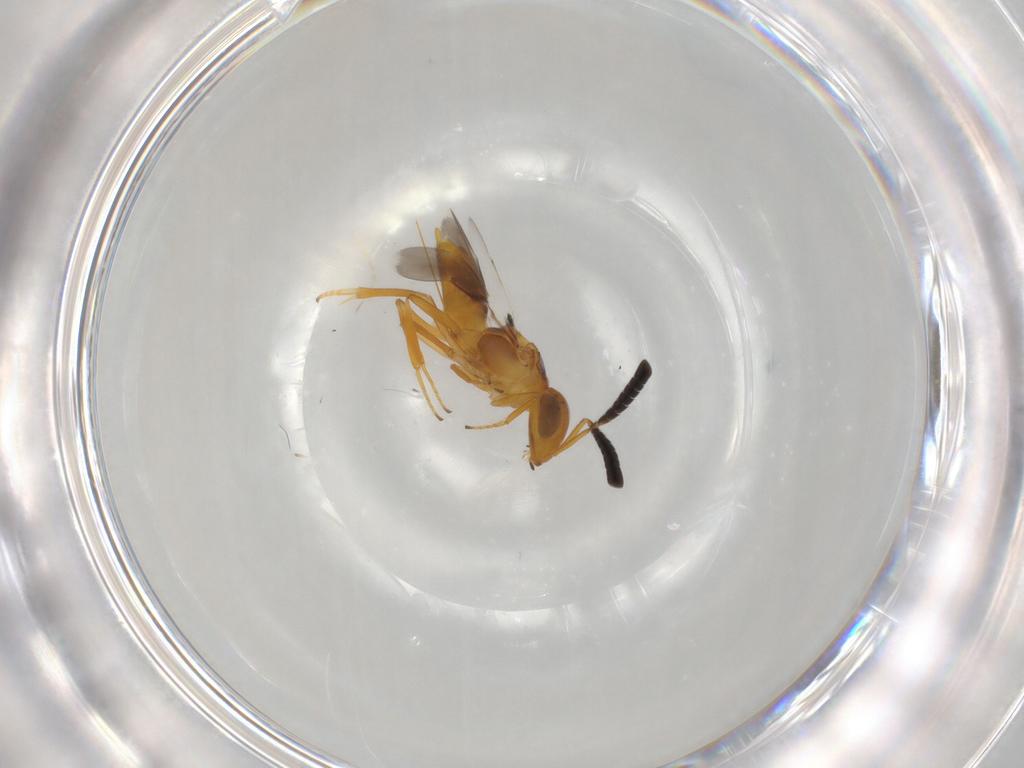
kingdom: Animalia
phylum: Arthropoda
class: Insecta
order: Hymenoptera
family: Encyrtidae
